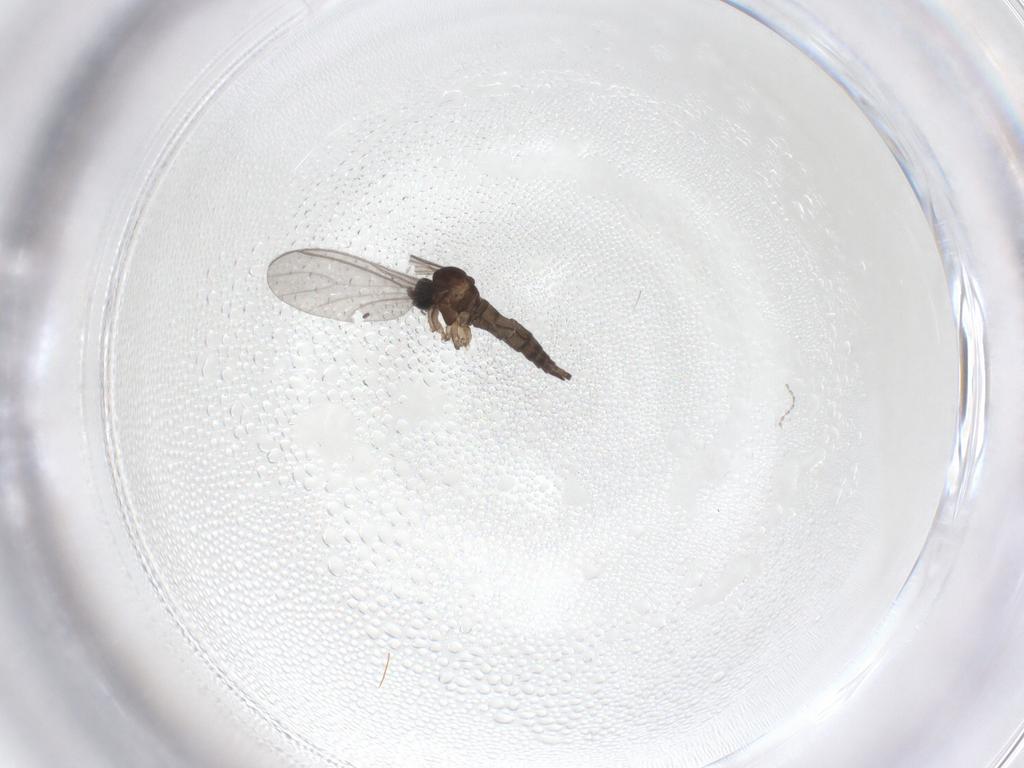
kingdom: Animalia
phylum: Arthropoda
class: Insecta
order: Diptera
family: Sciaridae
